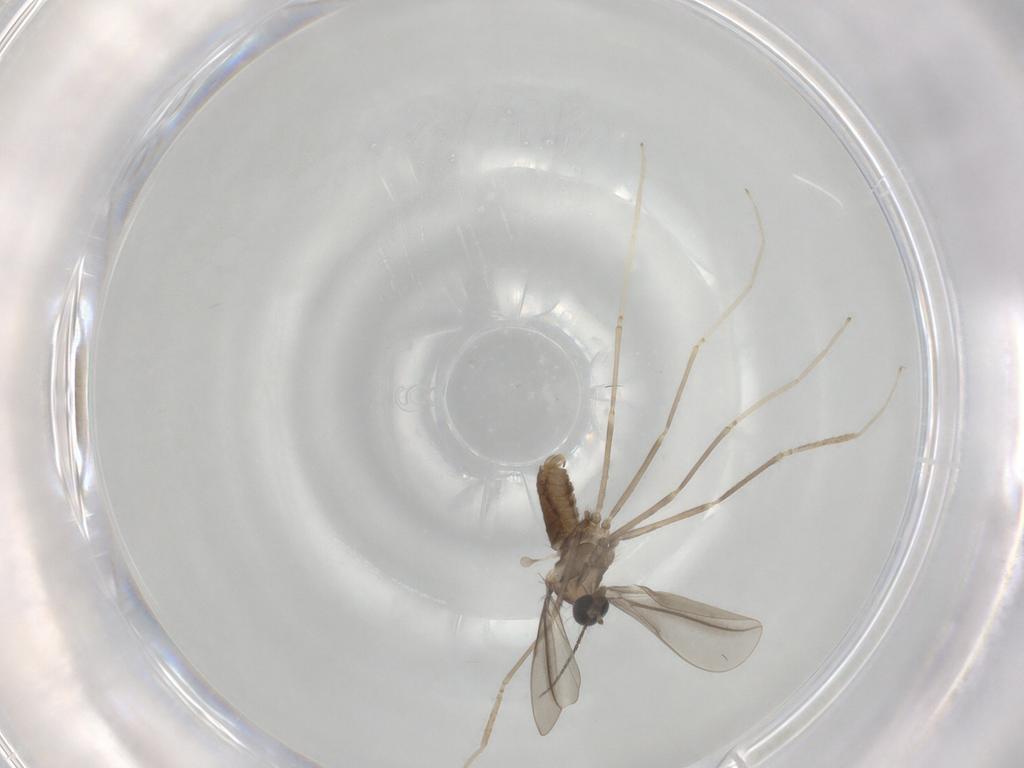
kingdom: Animalia
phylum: Arthropoda
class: Insecta
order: Diptera
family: Cecidomyiidae
